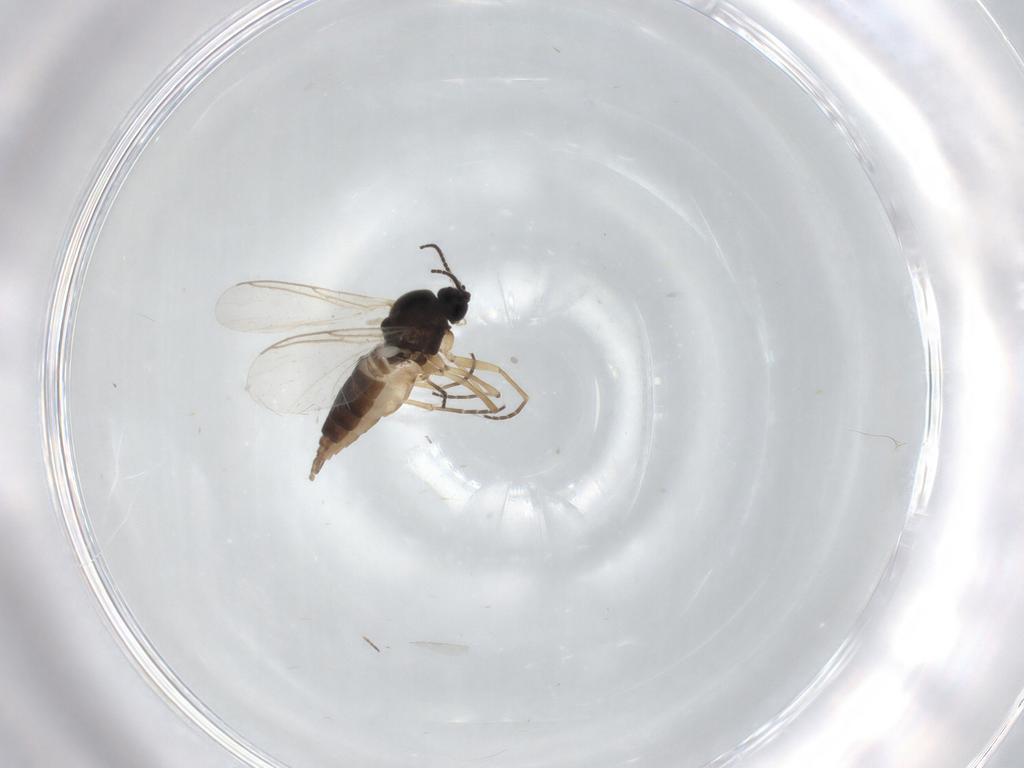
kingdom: Animalia
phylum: Arthropoda
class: Insecta
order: Diptera
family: Sciaridae
